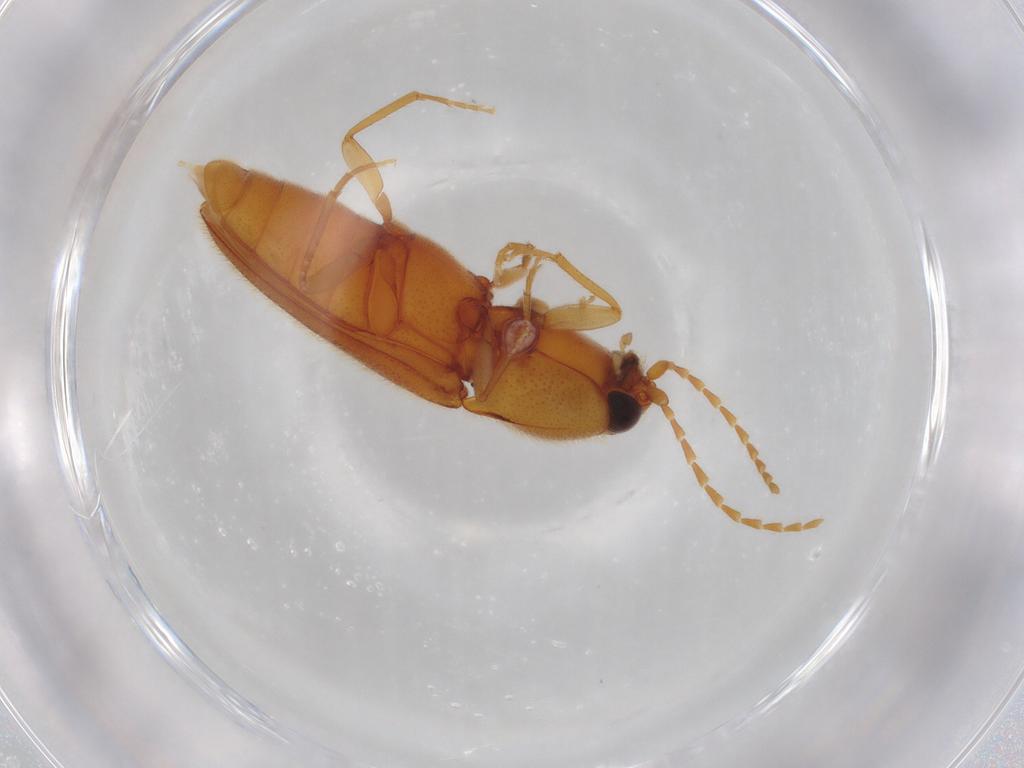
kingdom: Animalia
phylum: Arthropoda
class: Insecta
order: Coleoptera
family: Elateridae
